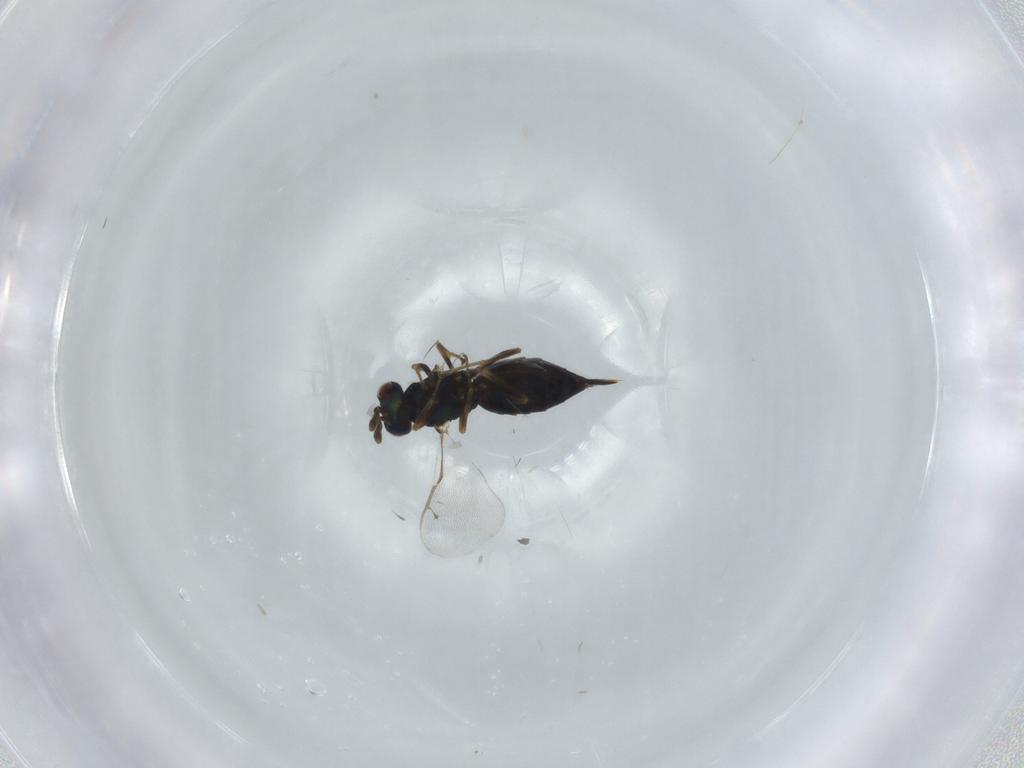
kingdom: Animalia
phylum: Arthropoda
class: Insecta
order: Hymenoptera
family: Pteromalidae
